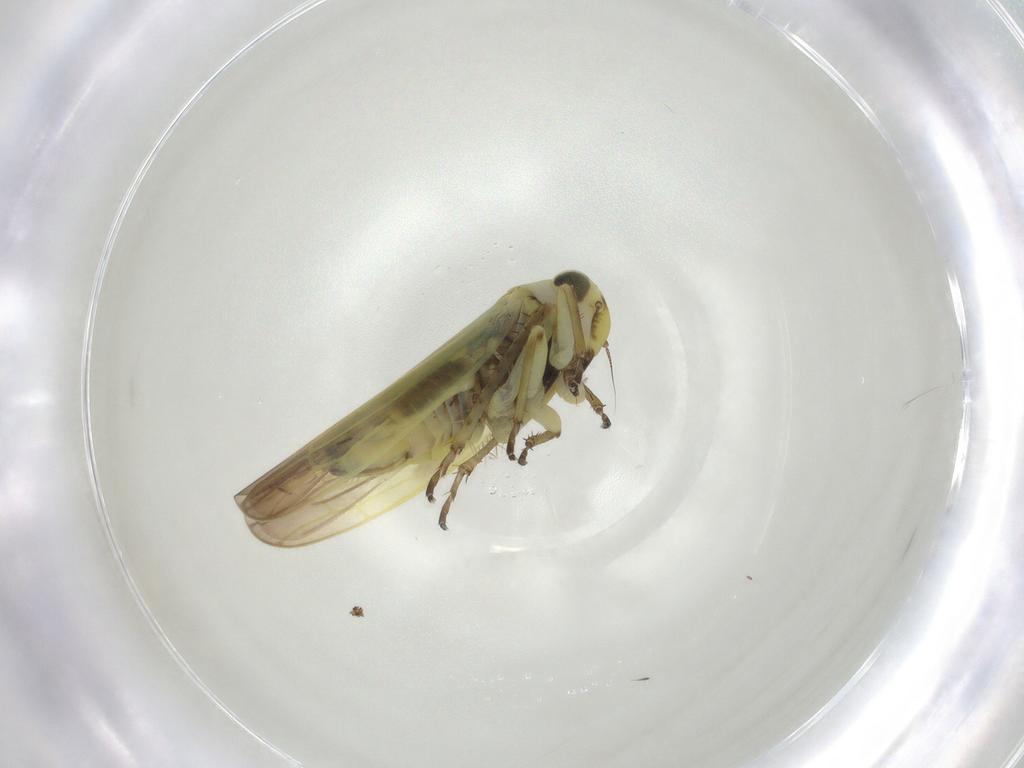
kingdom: Animalia
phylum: Arthropoda
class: Insecta
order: Hemiptera
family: Cicadellidae
